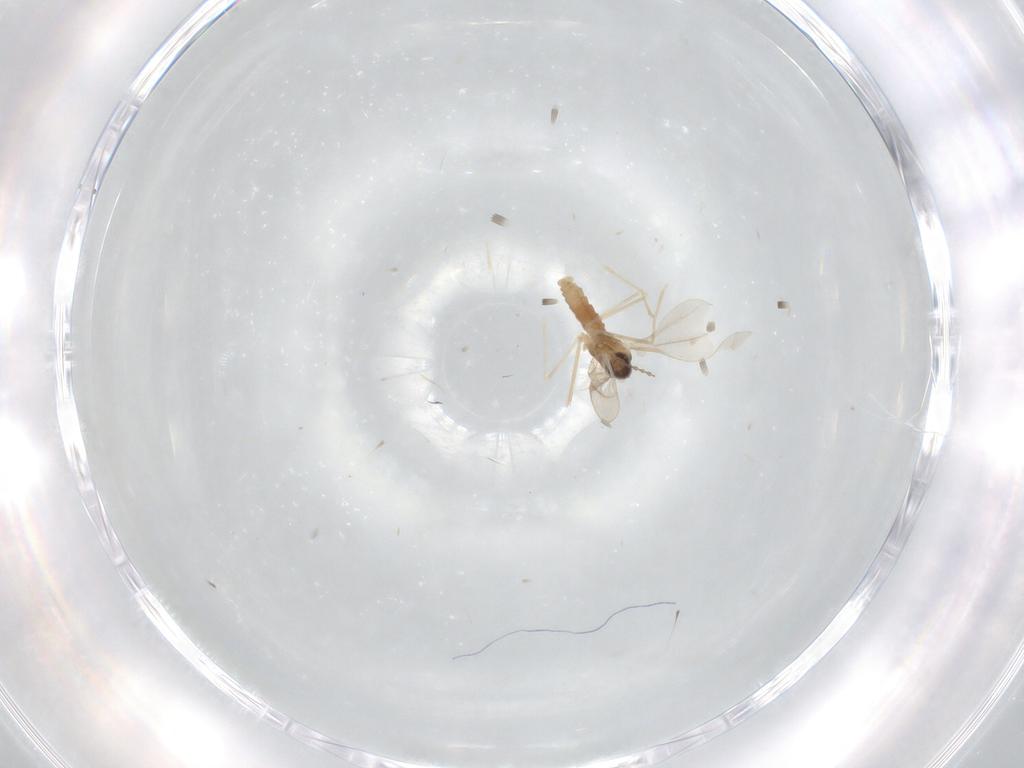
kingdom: Animalia
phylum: Arthropoda
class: Insecta
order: Diptera
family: Cecidomyiidae
